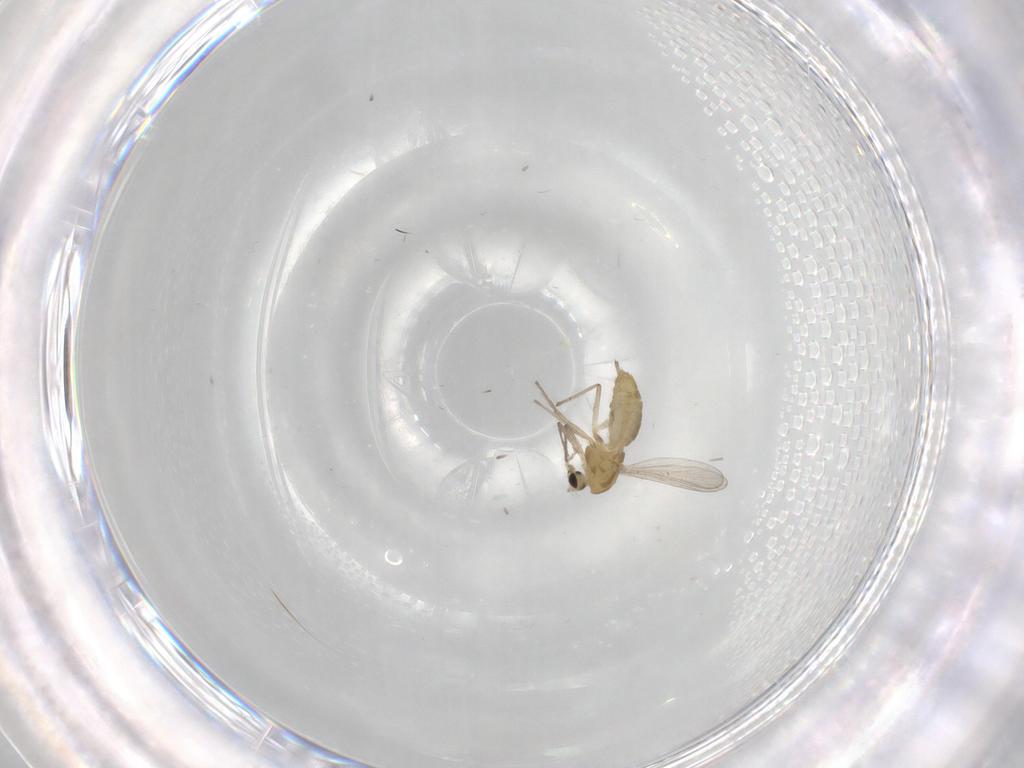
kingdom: Animalia
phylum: Arthropoda
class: Insecta
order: Diptera
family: Chironomidae
